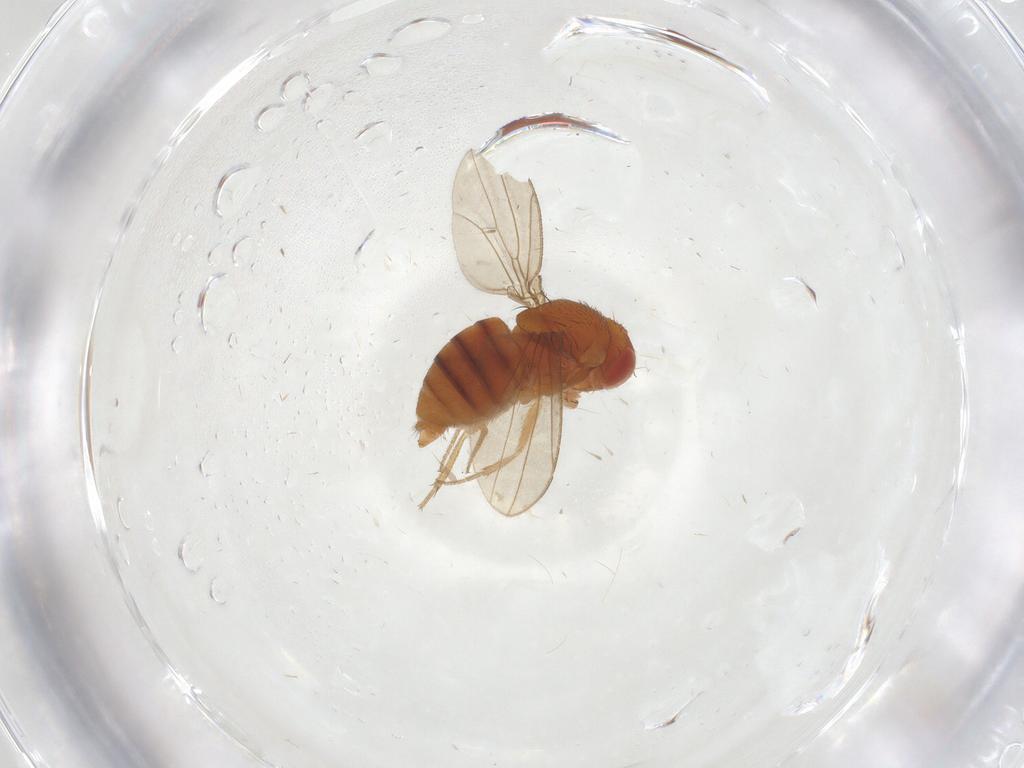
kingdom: Animalia
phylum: Arthropoda
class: Insecta
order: Diptera
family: Drosophilidae
